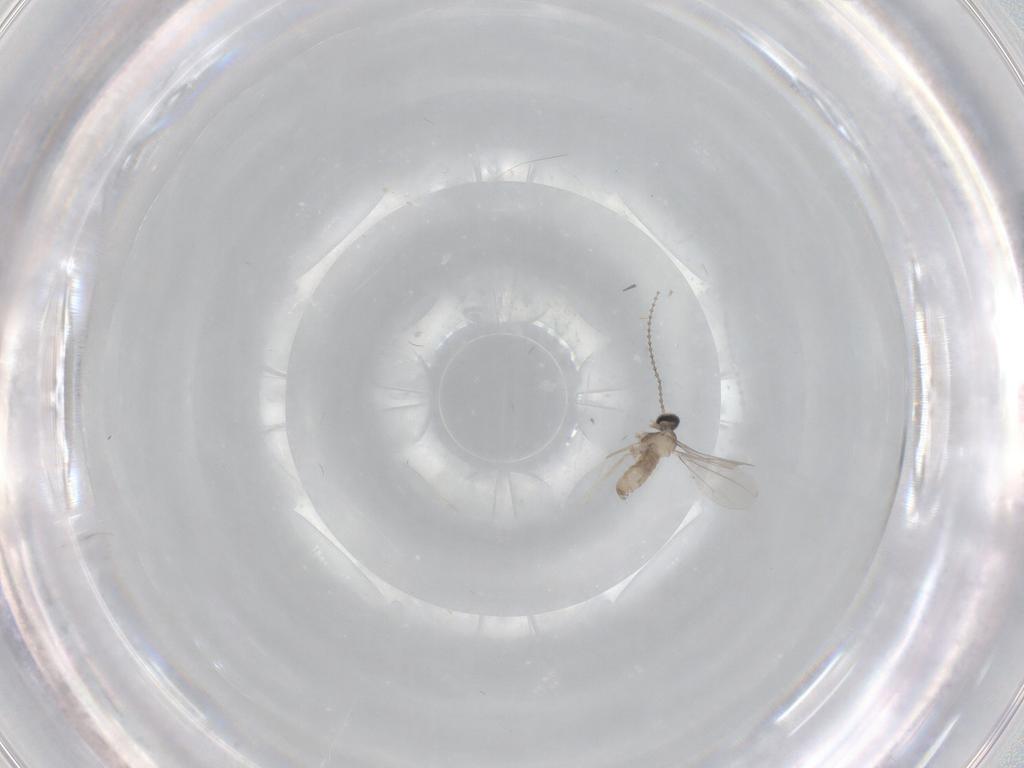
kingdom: Animalia
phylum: Arthropoda
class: Insecta
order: Diptera
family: Cecidomyiidae
